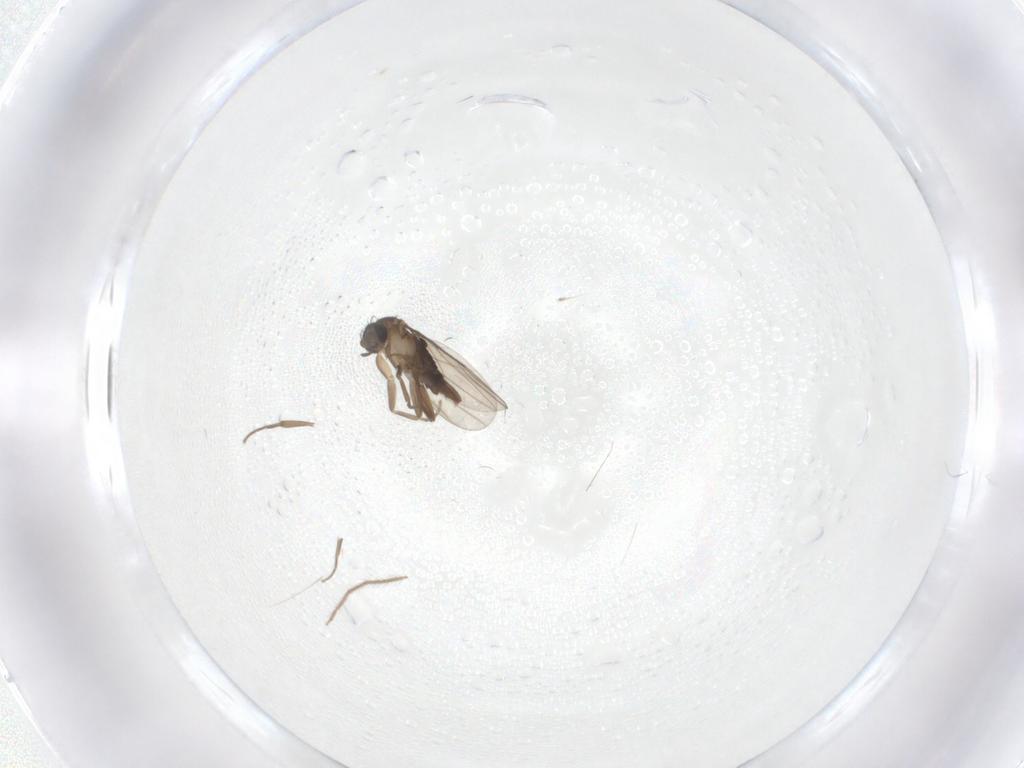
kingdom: Animalia
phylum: Arthropoda
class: Insecta
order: Diptera
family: Phoridae
